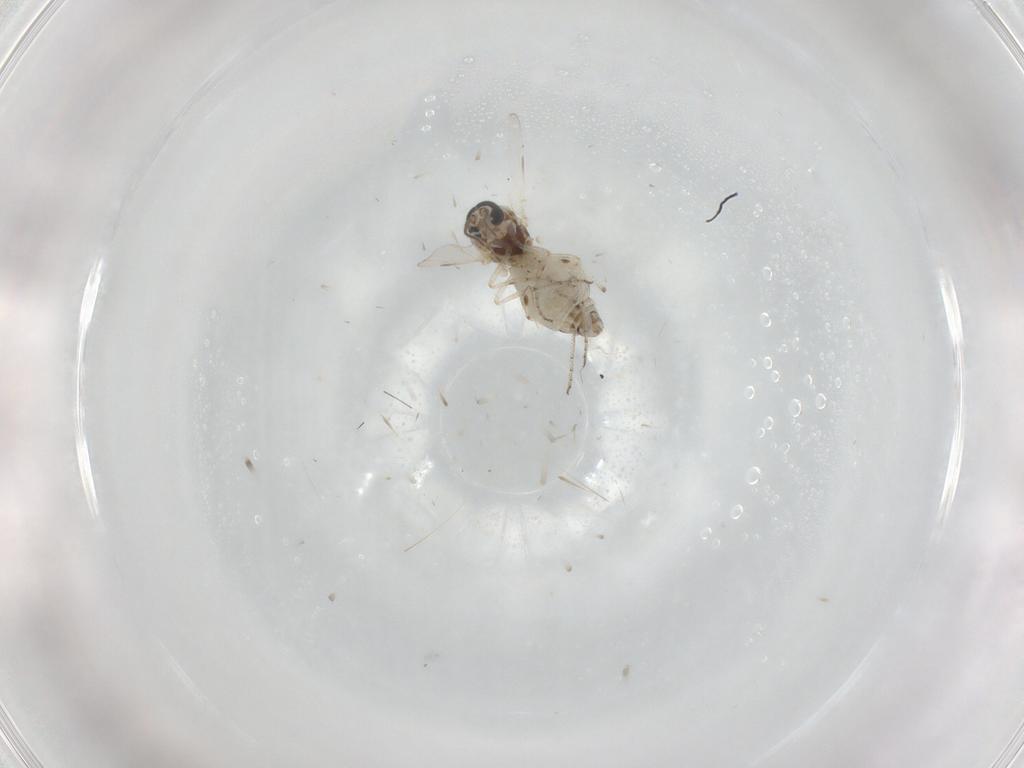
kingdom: Animalia
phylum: Arthropoda
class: Insecta
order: Diptera
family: Ceratopogonidae
